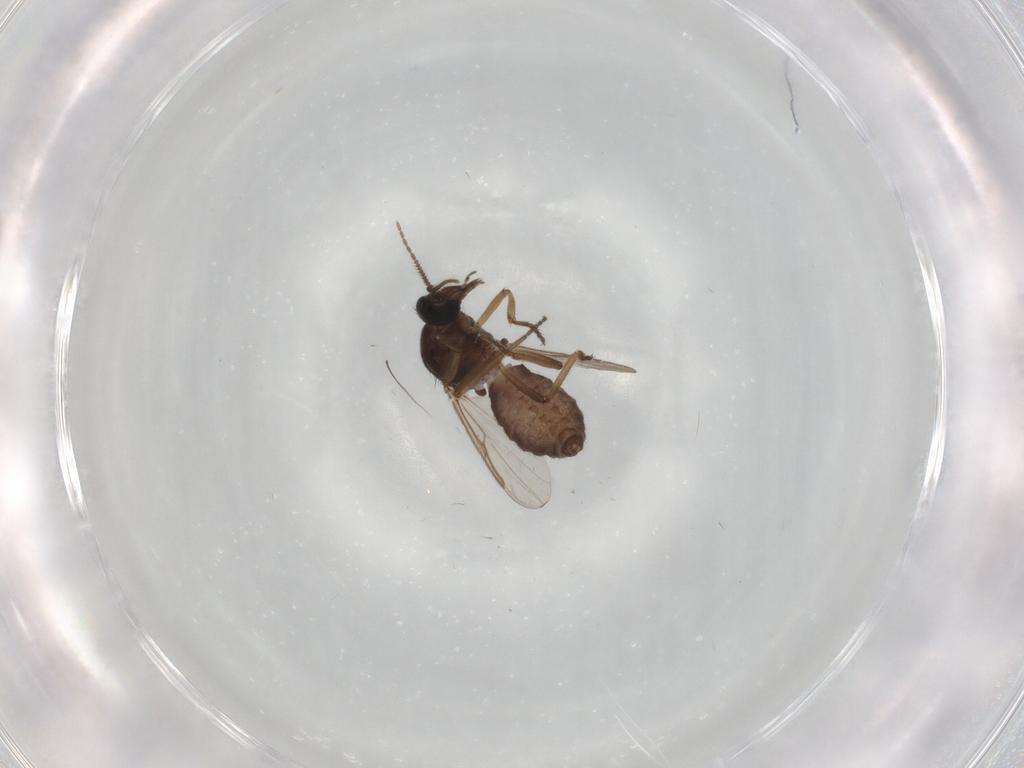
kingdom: Animalia
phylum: Arthropoda
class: Insecta
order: Diptera
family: Ceratopogonidae
